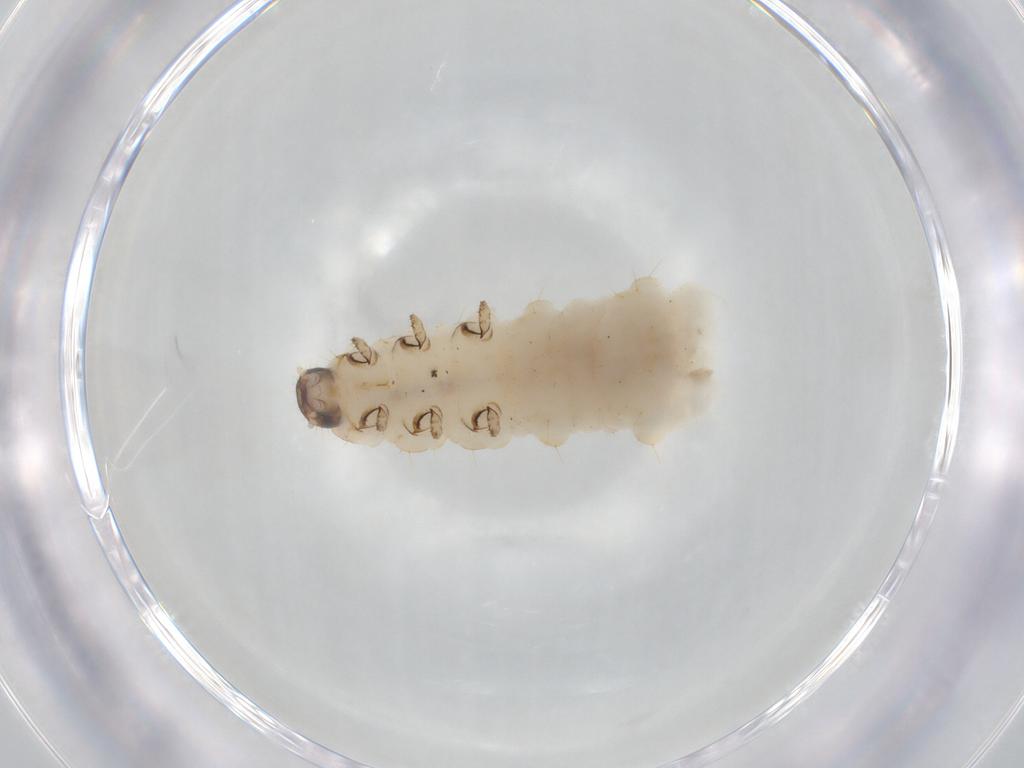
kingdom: Animalia
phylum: Arthropoda
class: Insecta
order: Coleoptera
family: Chrysomelidae
